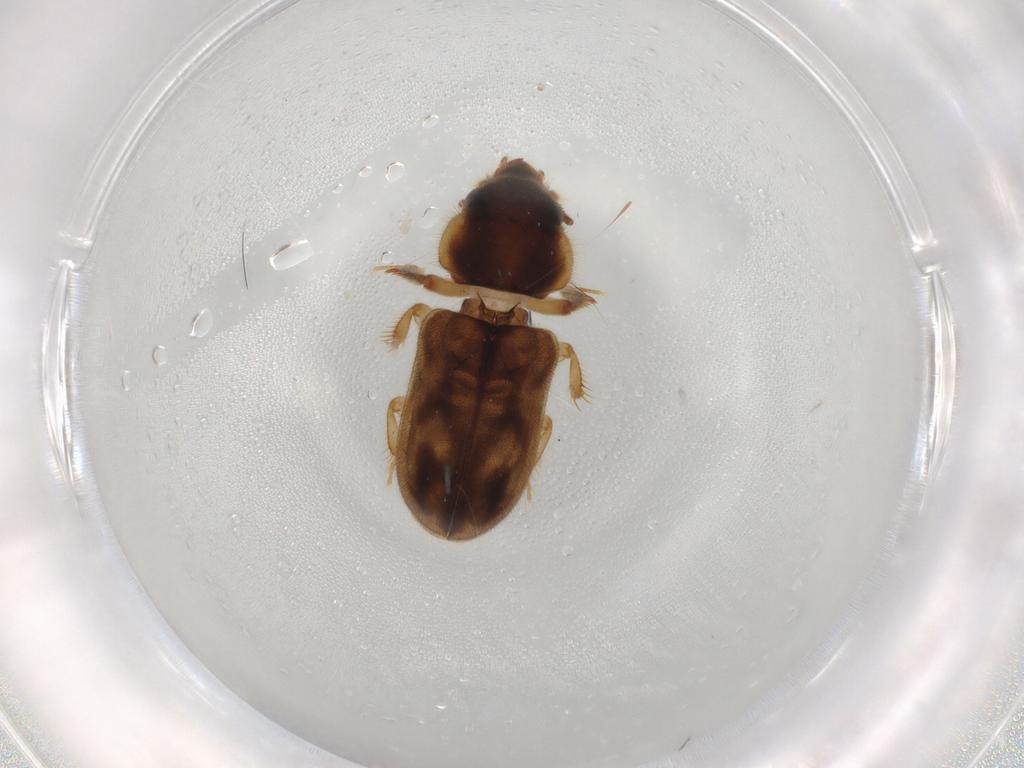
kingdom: Animalia
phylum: Arthropoda
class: Insecta
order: Coleoptera
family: Heteroceridae
